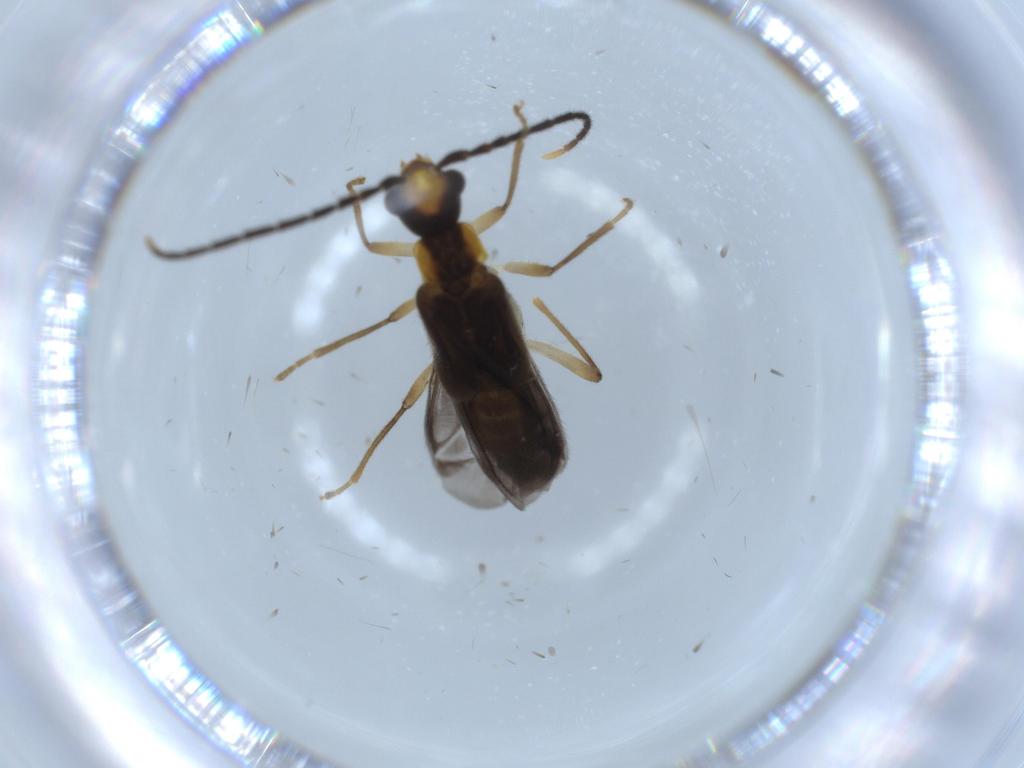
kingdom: Animalia
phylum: Arthropoda
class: Insecta
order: Coleoptera
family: Cantharidae
